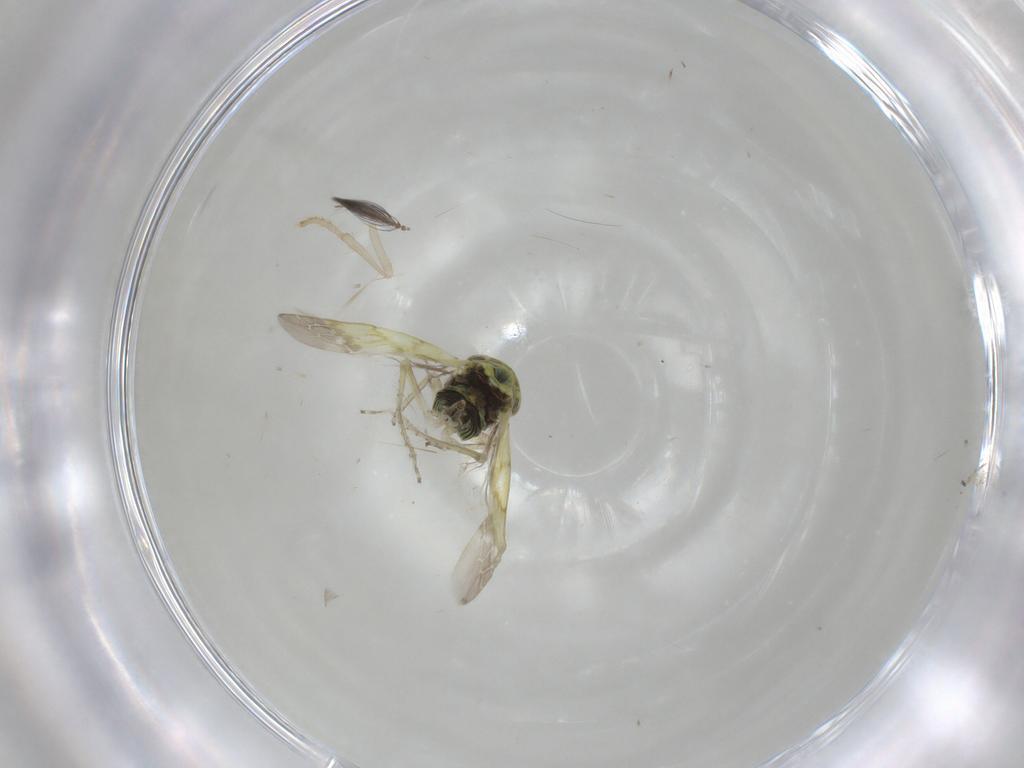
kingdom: Animalia
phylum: Arthropoda
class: Insecta
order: Hemiptera
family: Cicadellidae
